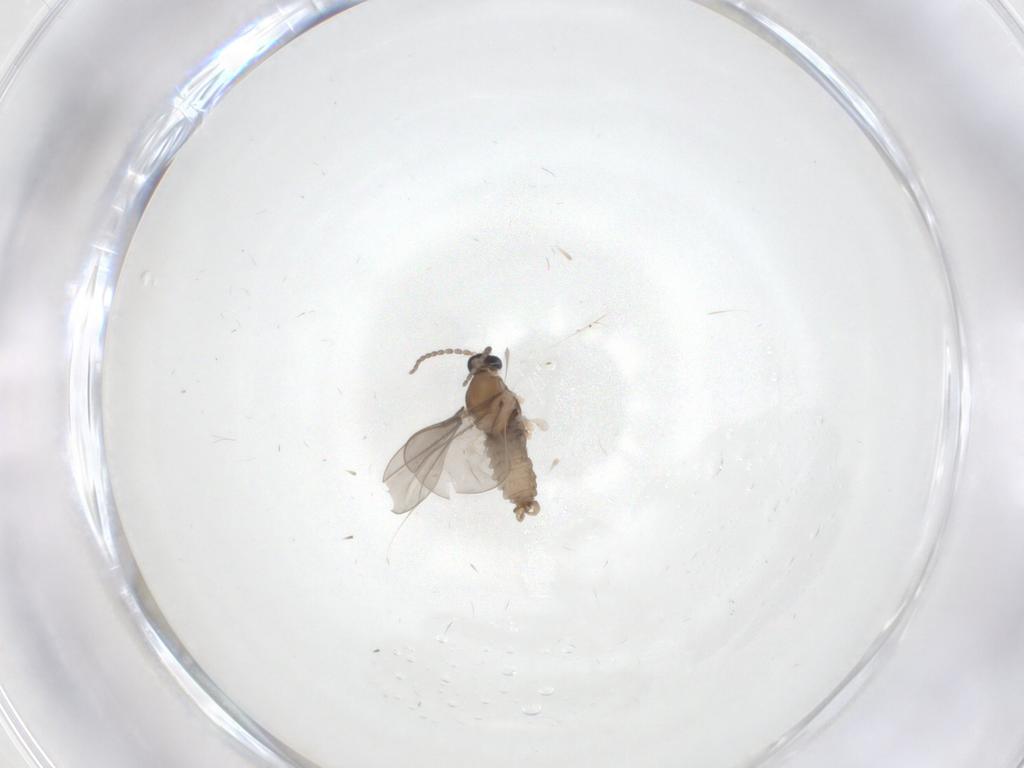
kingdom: Animalia
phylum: Arthropoda
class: Insecta
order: Diptera
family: Cecidomyiidae
